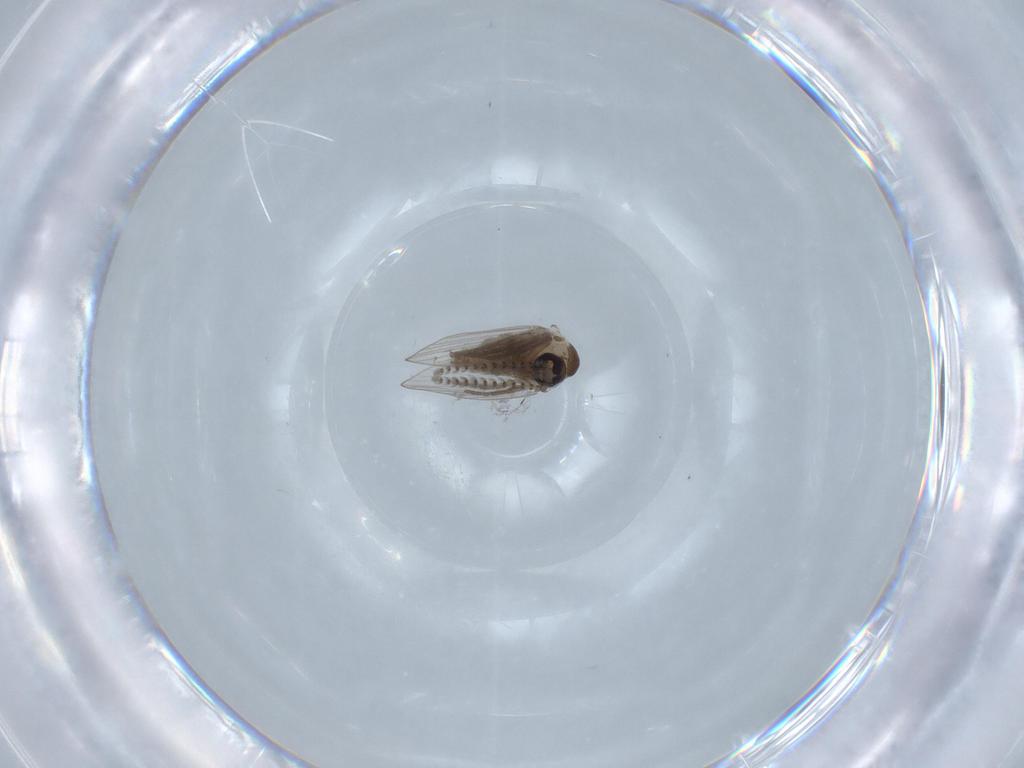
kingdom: Animalia
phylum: Arthropoda
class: Insecta
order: Diptera
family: Psychodidae
